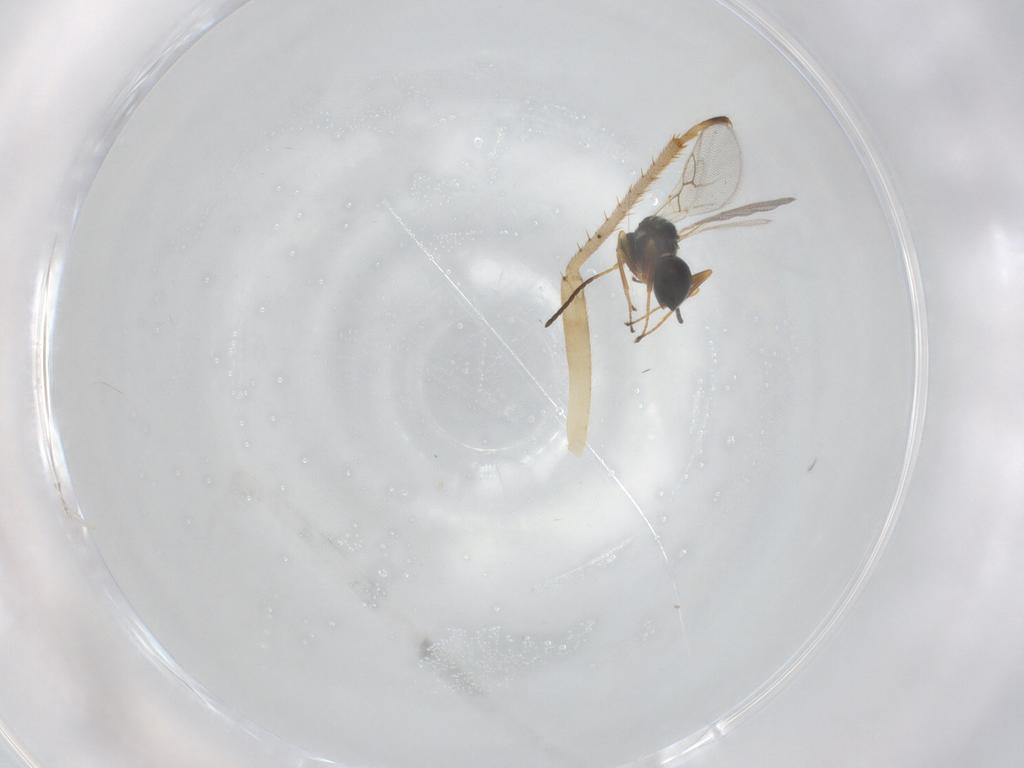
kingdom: Animalia
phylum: Arthropoda
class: Insecta
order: Hymenoptera
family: Figitidae
